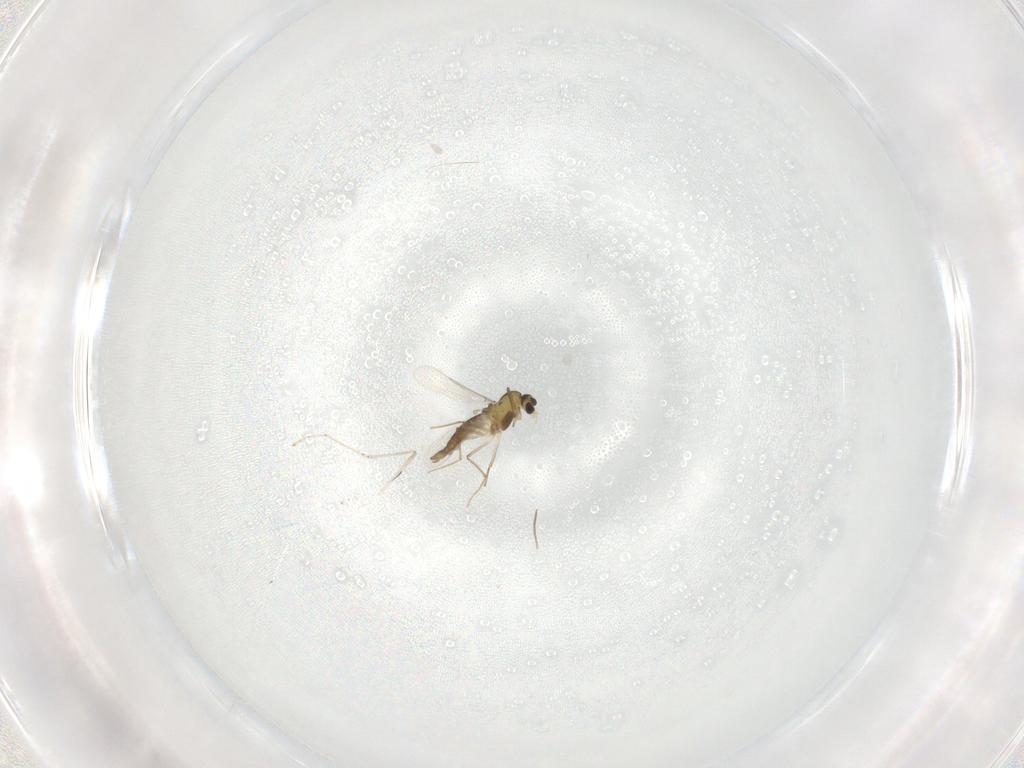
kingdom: Animalia
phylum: Arthropoda
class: Insecta
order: Diptera
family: Chironomidae
